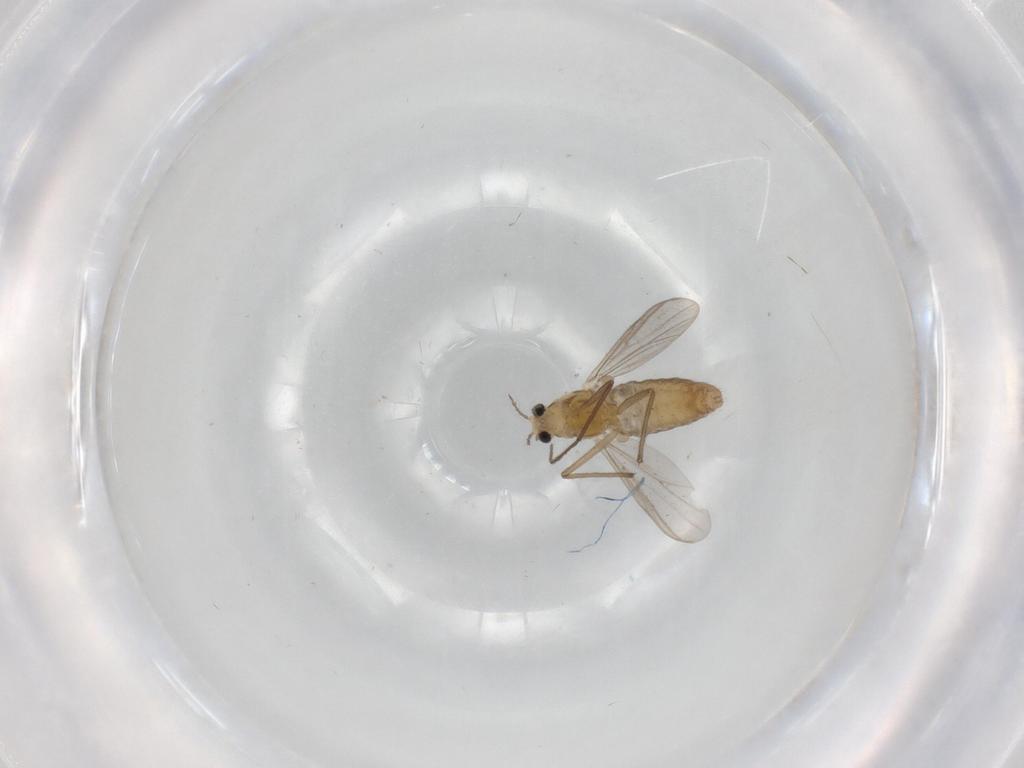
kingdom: Animalia
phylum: Arthropoda
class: Insecta
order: Diptera
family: Chironomidae
